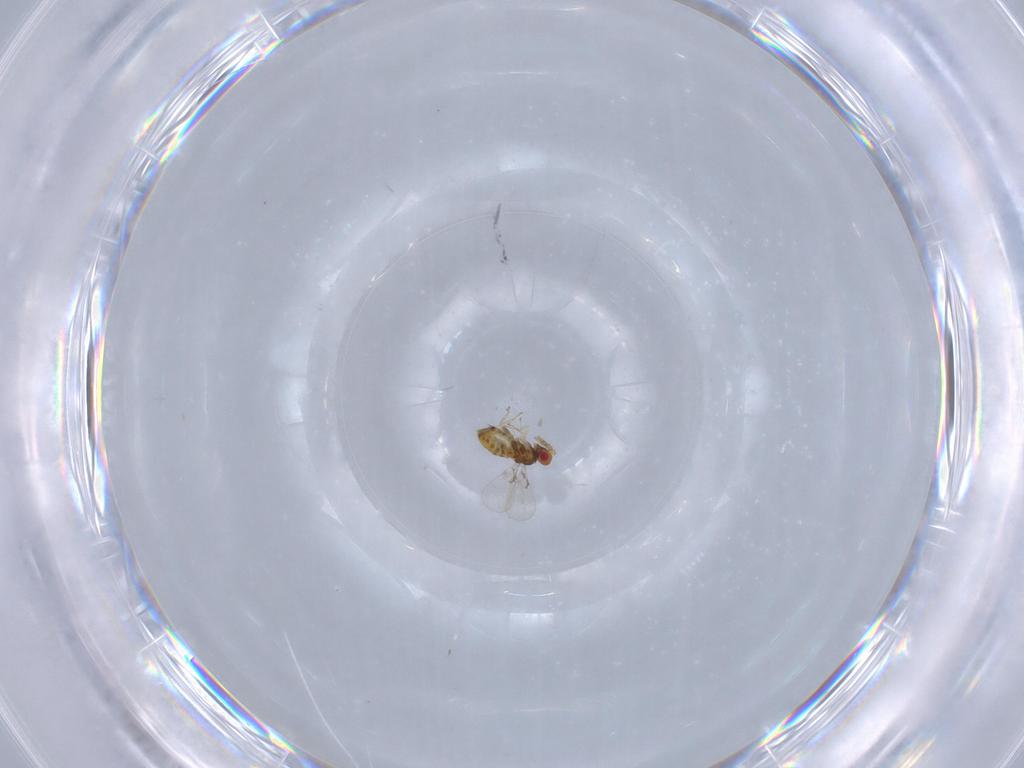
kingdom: Animalia
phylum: Arthropoda
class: Insecta
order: Hymenoptera
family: Trichogrammatidae
